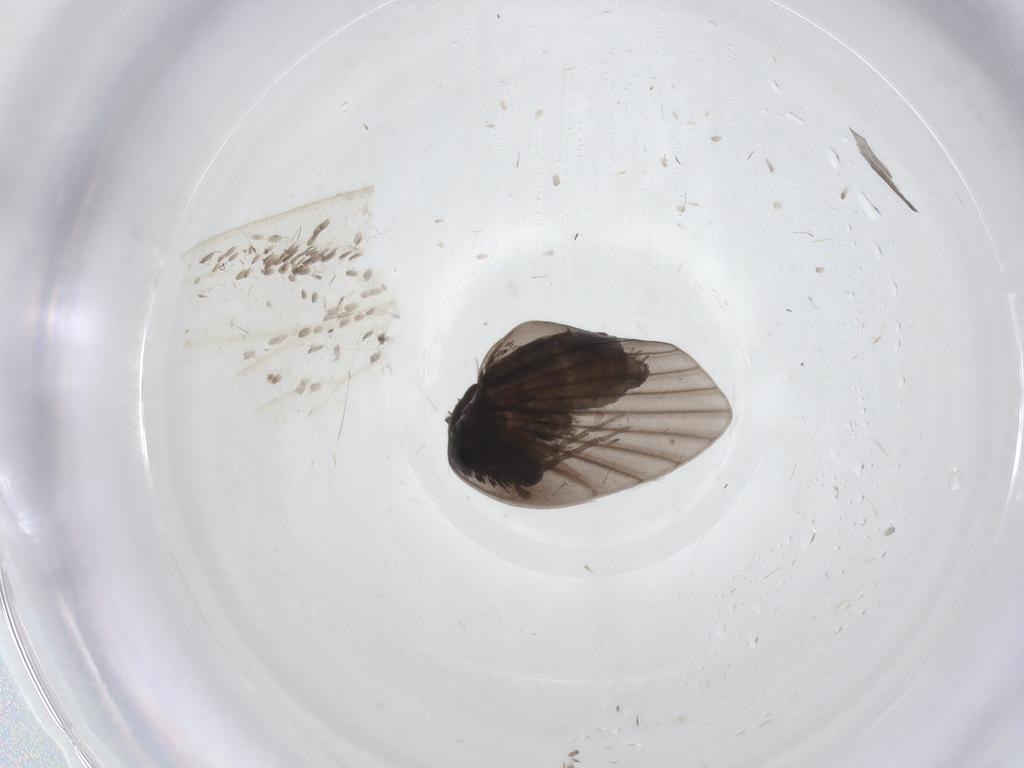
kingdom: Animalia
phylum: Arthropoda
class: Insecta
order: Diptera
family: Psychodidae
